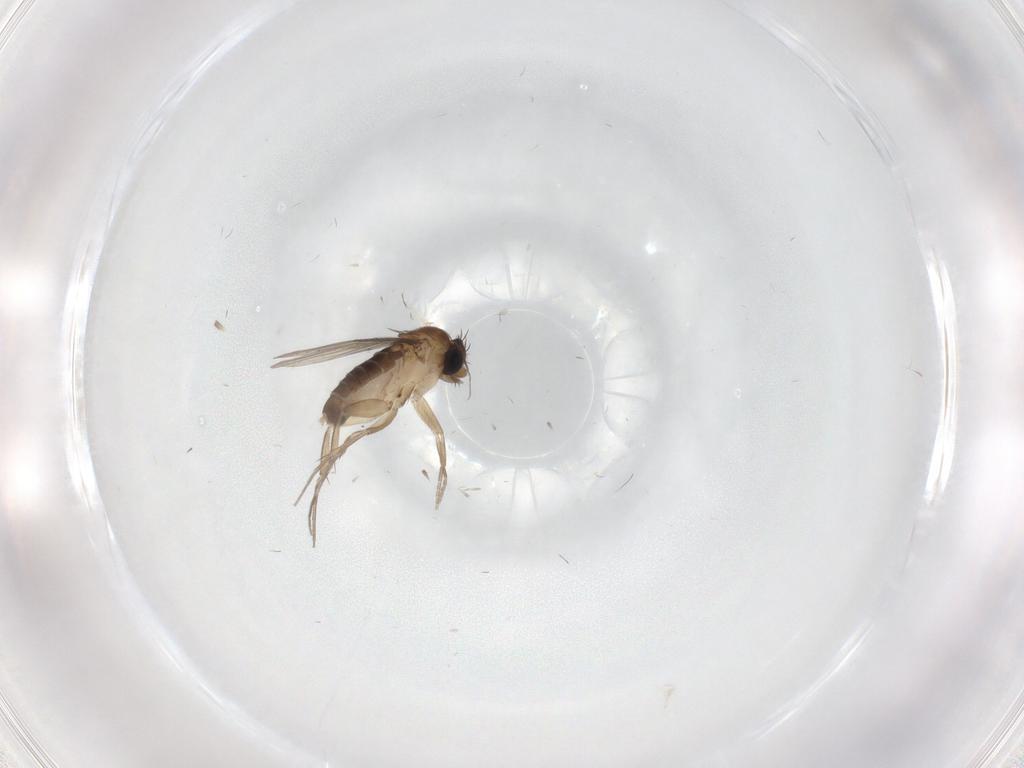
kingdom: Animalia
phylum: Arthropoda
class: Insecta
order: Diptera
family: Phoridae
